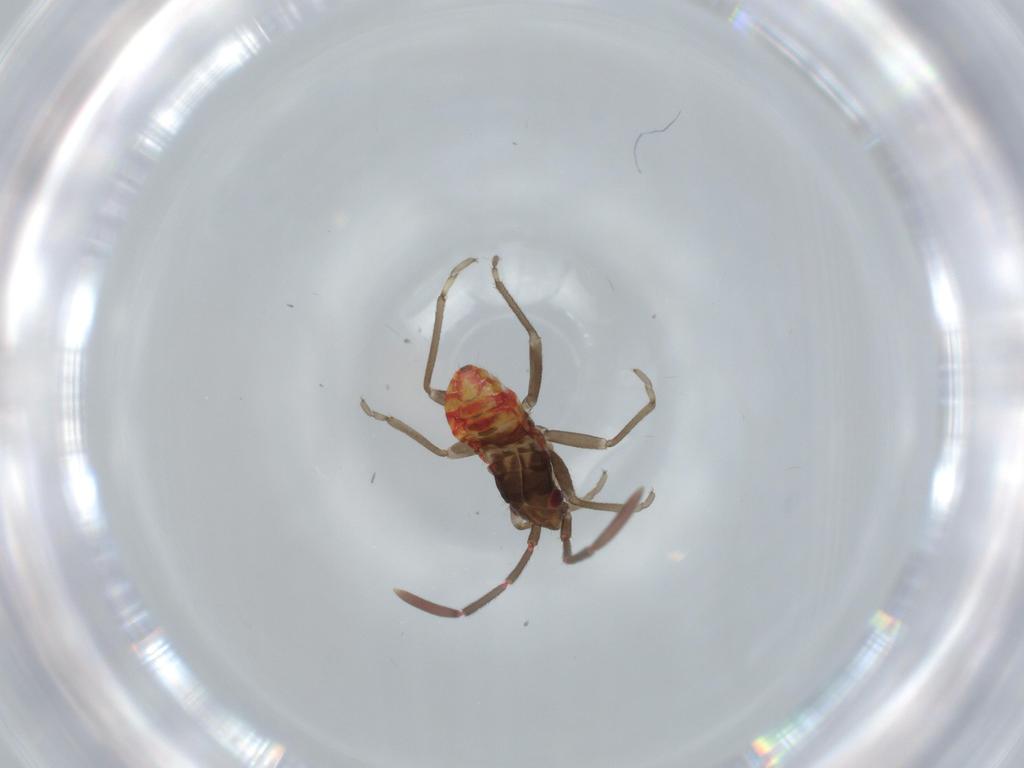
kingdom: Animalia
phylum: Arthropoda
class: Insecta
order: Hemiptera
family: Rhyparochromidae
